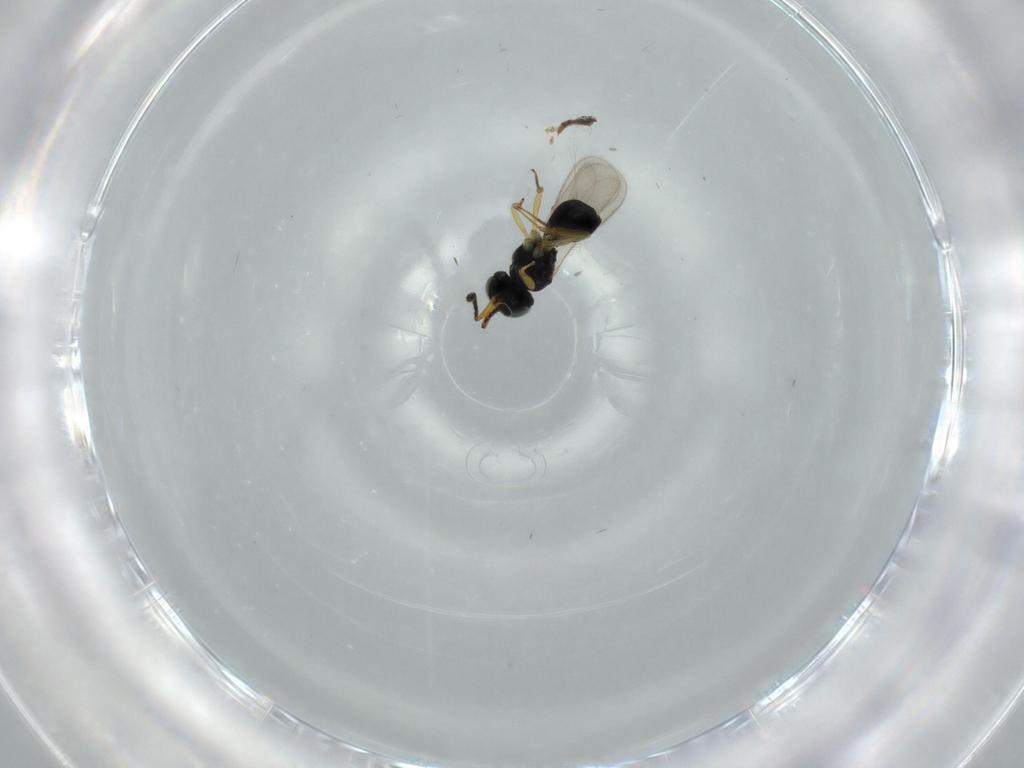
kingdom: Animalia
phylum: Arthropoda
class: Insecta
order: Hymenoptera
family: Scelionidae
